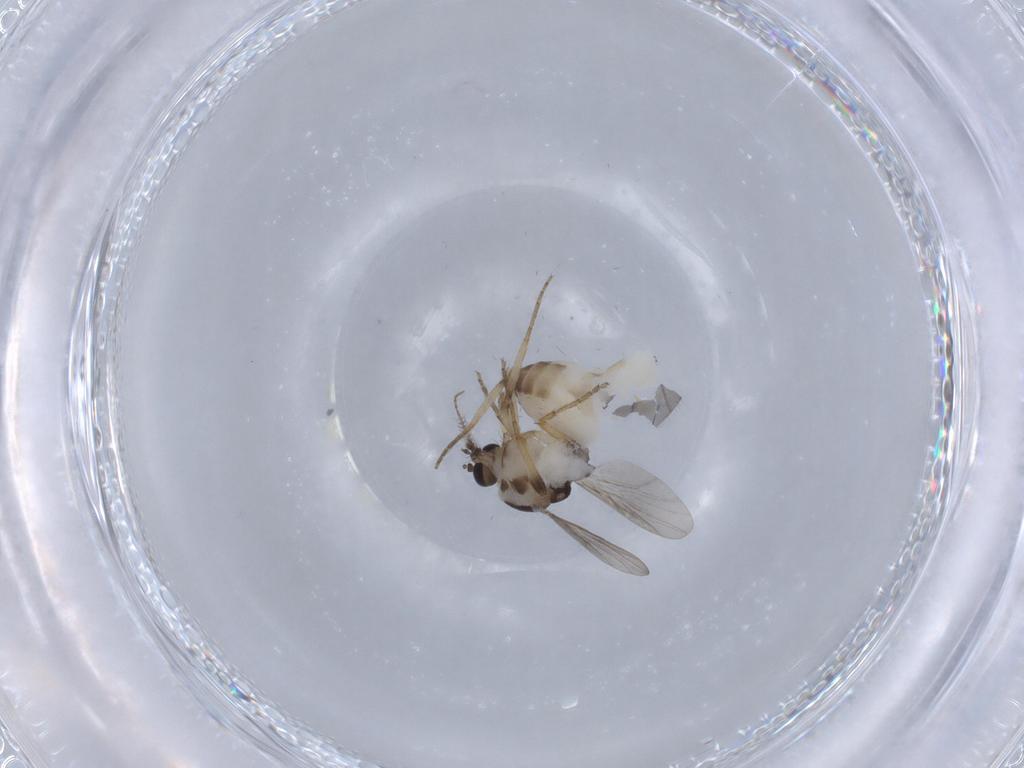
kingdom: Animalia
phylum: Arthropoda
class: Insecta
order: Diptera
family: Ceratopogonidae
